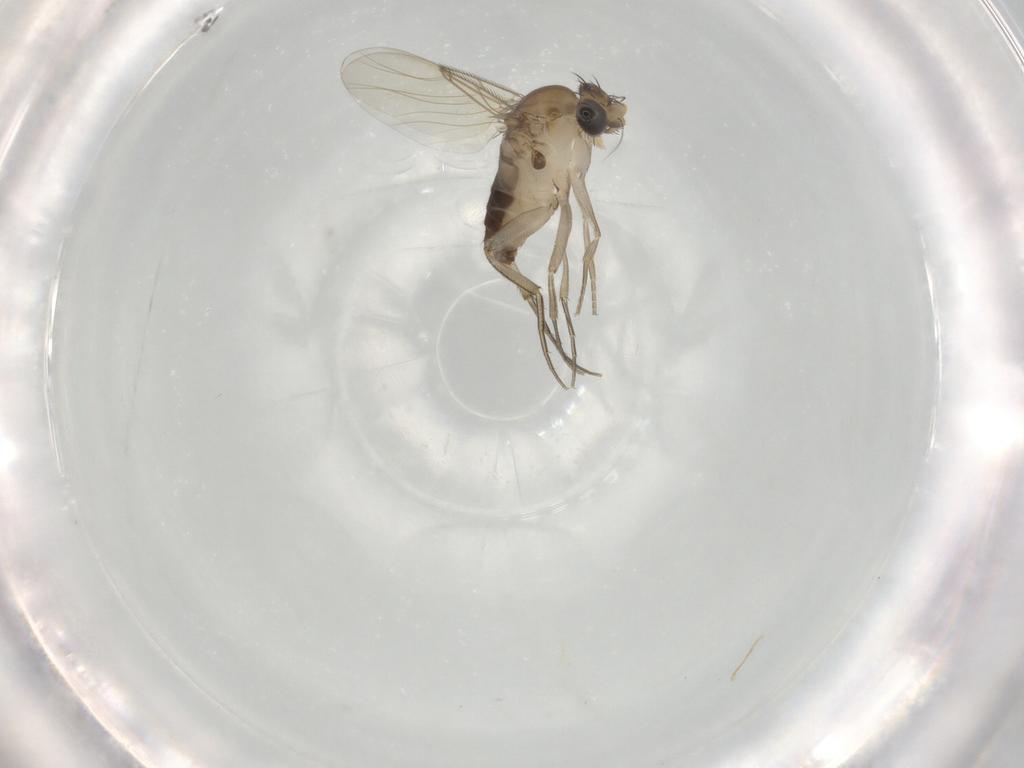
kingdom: Animalia
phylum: Arthropoda
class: Insecta
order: Diptera
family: Phoridae
